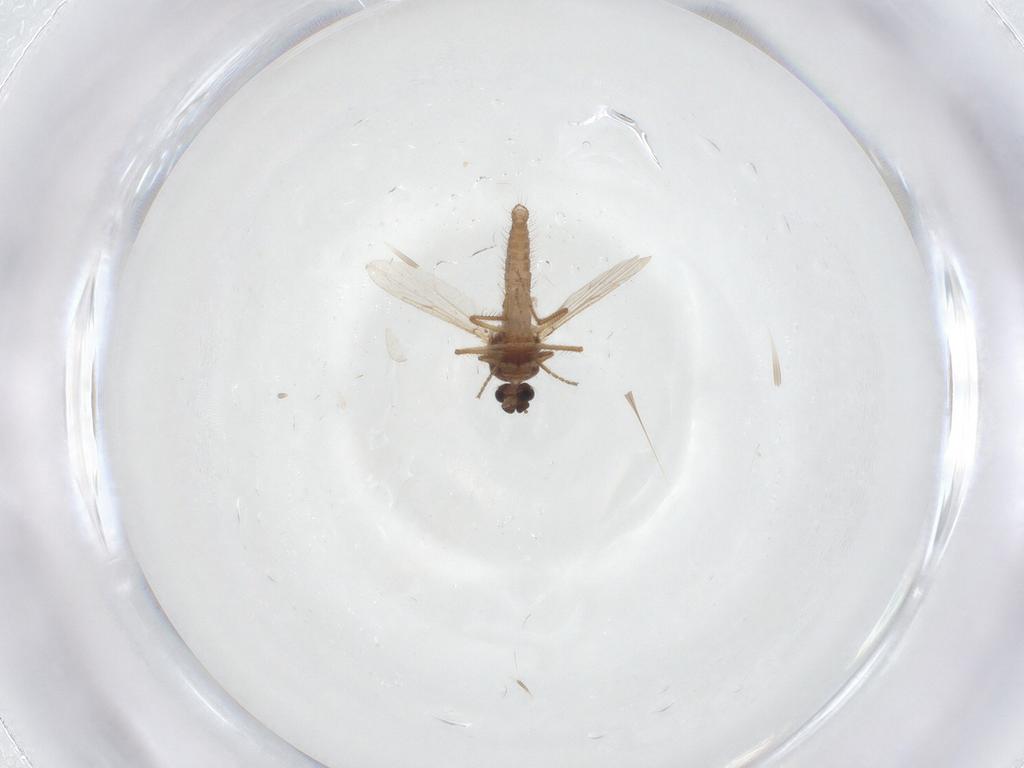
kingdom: Animalia
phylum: Arthropoda
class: Insecta
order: Diptera
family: Ceratopogonidae
